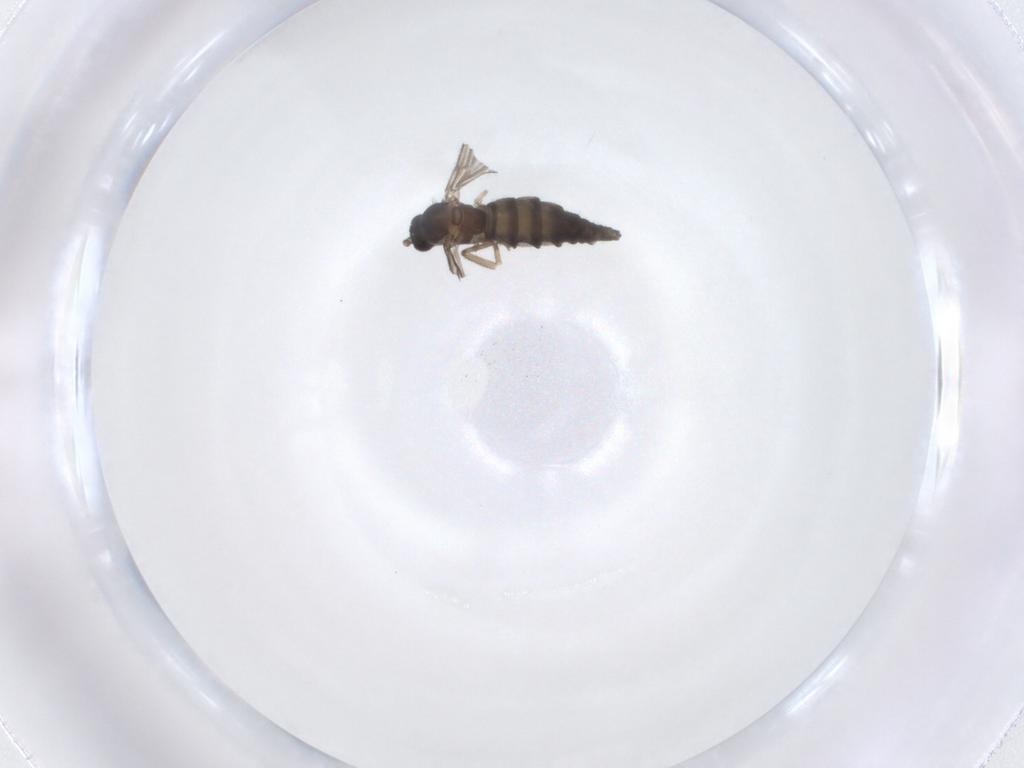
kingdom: Animalia
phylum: Arthropoda
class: Insecta
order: Diptera
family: Sciaridae
